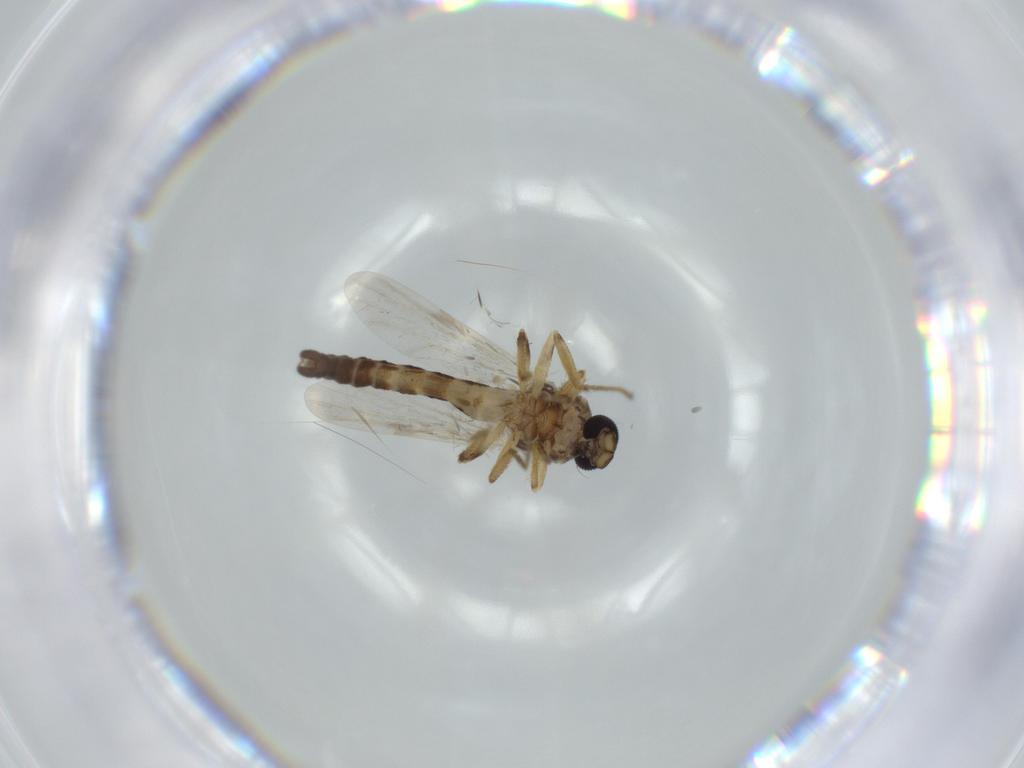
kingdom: Animalia
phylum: Arthropoda
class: Insecta
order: Diptera
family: Ceratopogonidae
